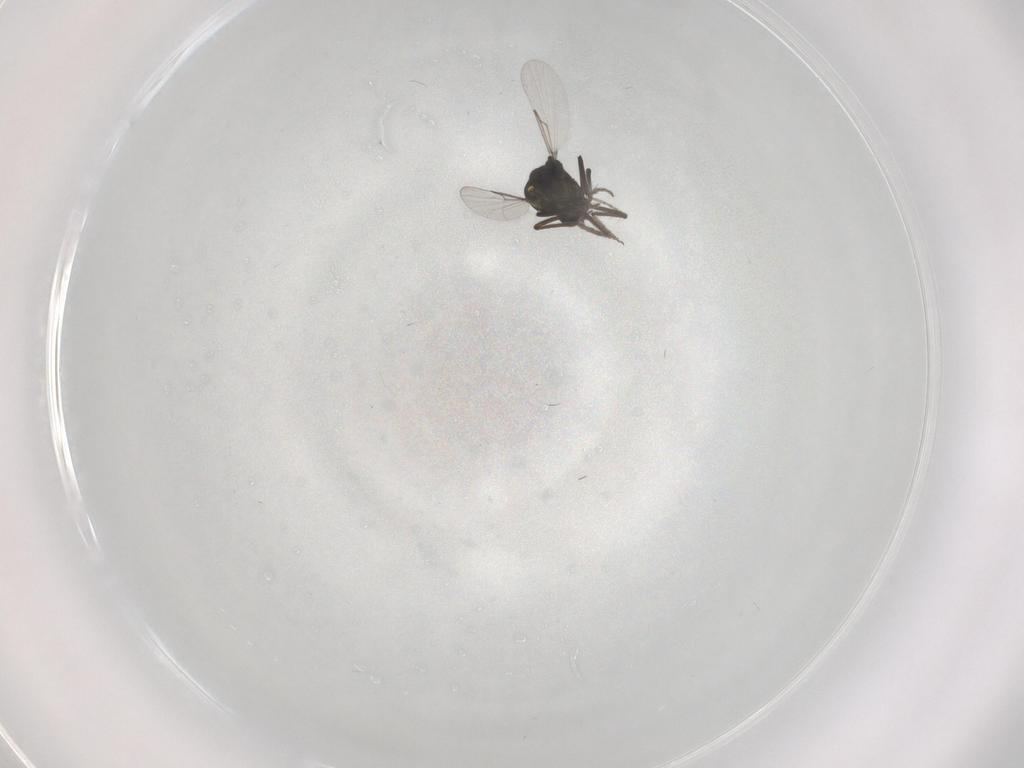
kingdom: Animalia
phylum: Arthropoda
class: Insecta
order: Diptera
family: Ceratopogonidae
